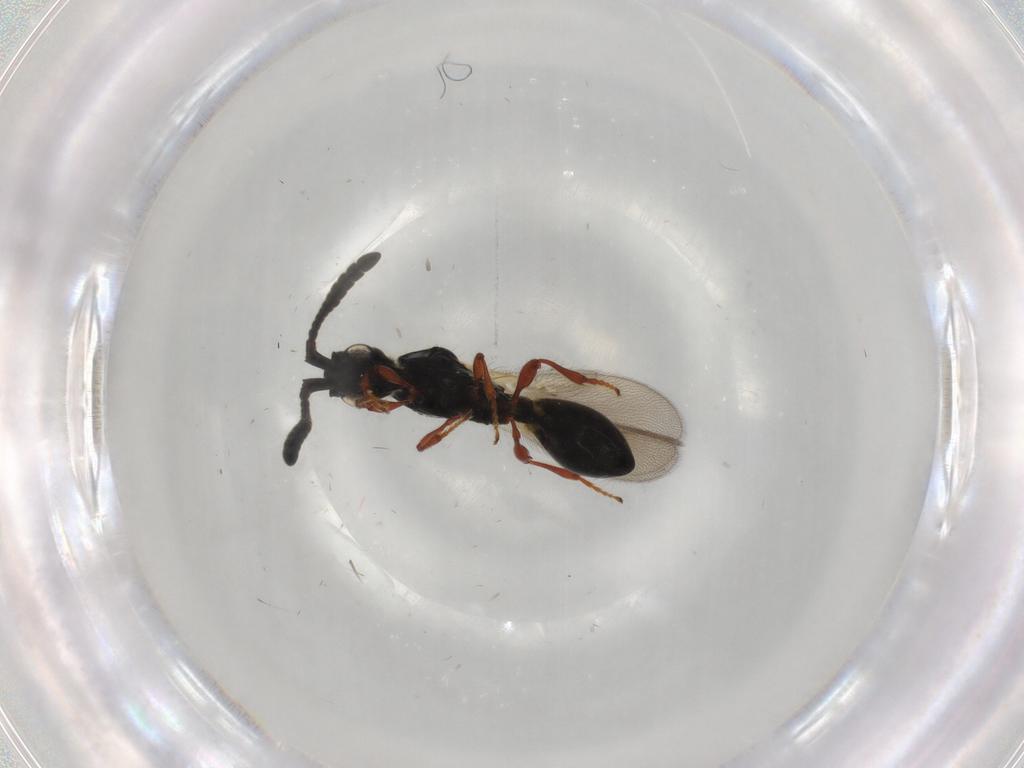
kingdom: Animalia
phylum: Arthropoda
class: Insecta
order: Hymenoptera
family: Diapriidae
